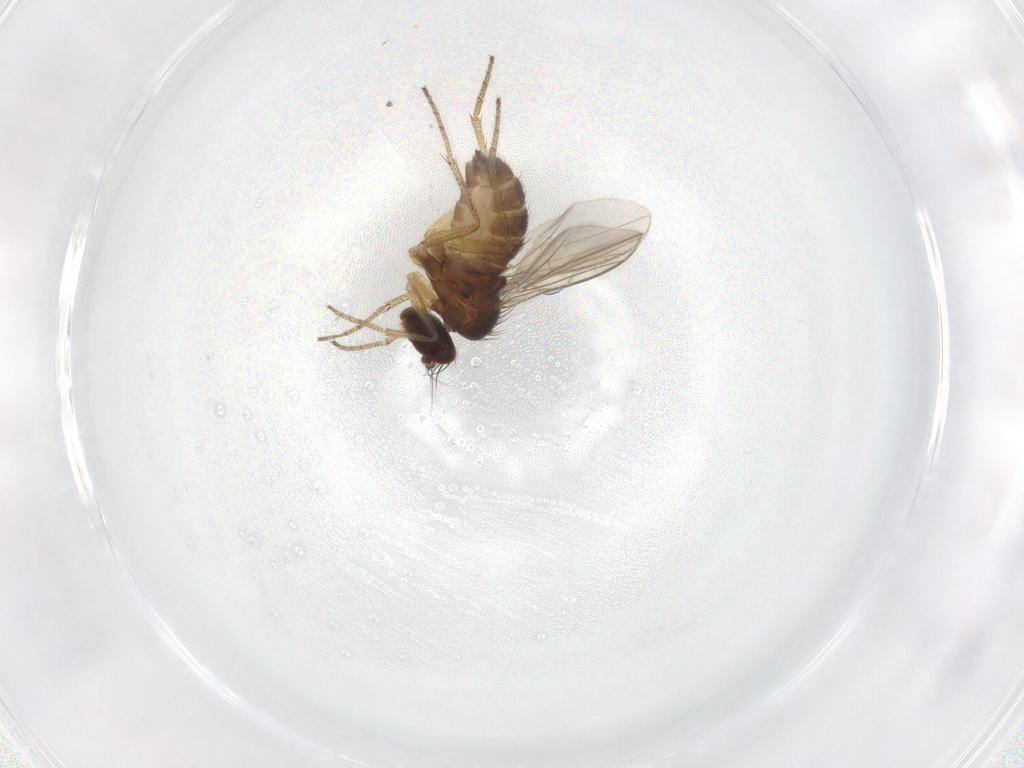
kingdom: Animalia
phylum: Arthropoda
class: Insecta
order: Diptera
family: Dolichopodidae
